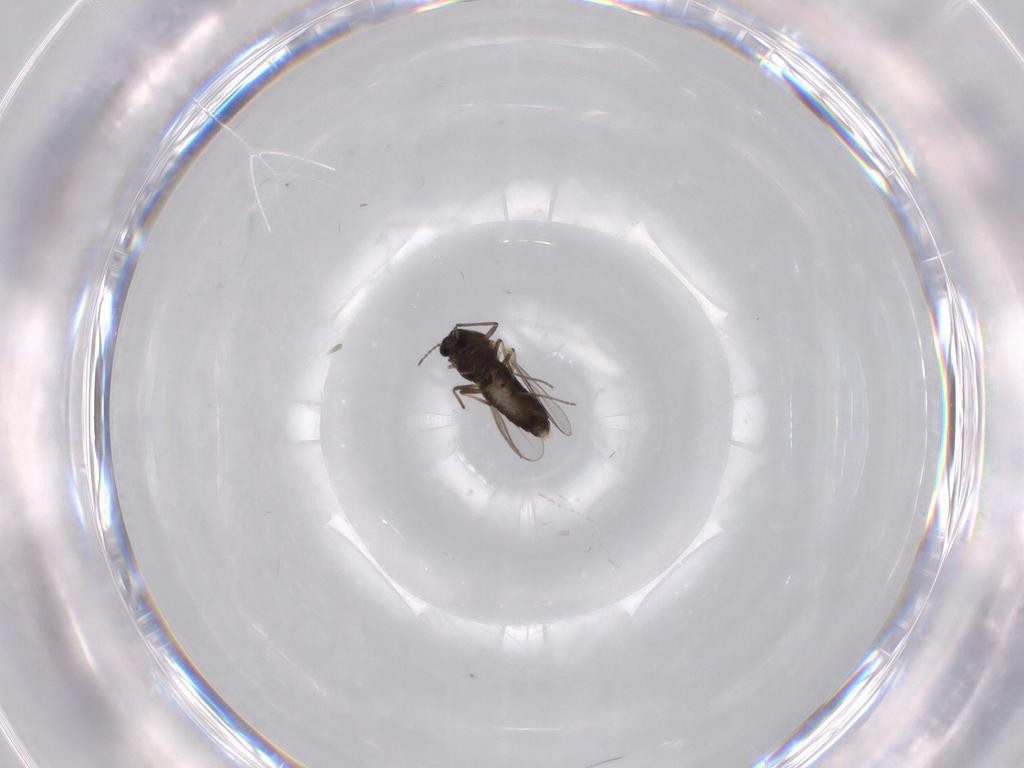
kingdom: Animalia
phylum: Arthropoda
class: Insecta
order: Diptera
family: Chironomidae
